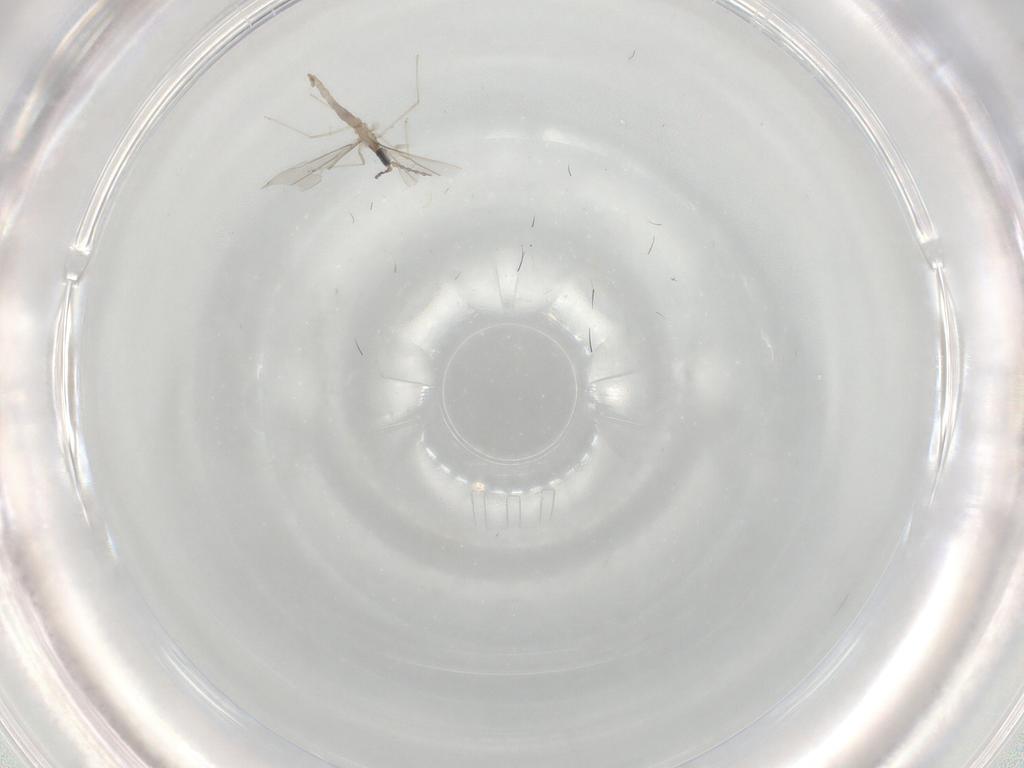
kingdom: Animalia
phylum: Arthropoda
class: Insecta
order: Diptera
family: Cecidomyiidae
